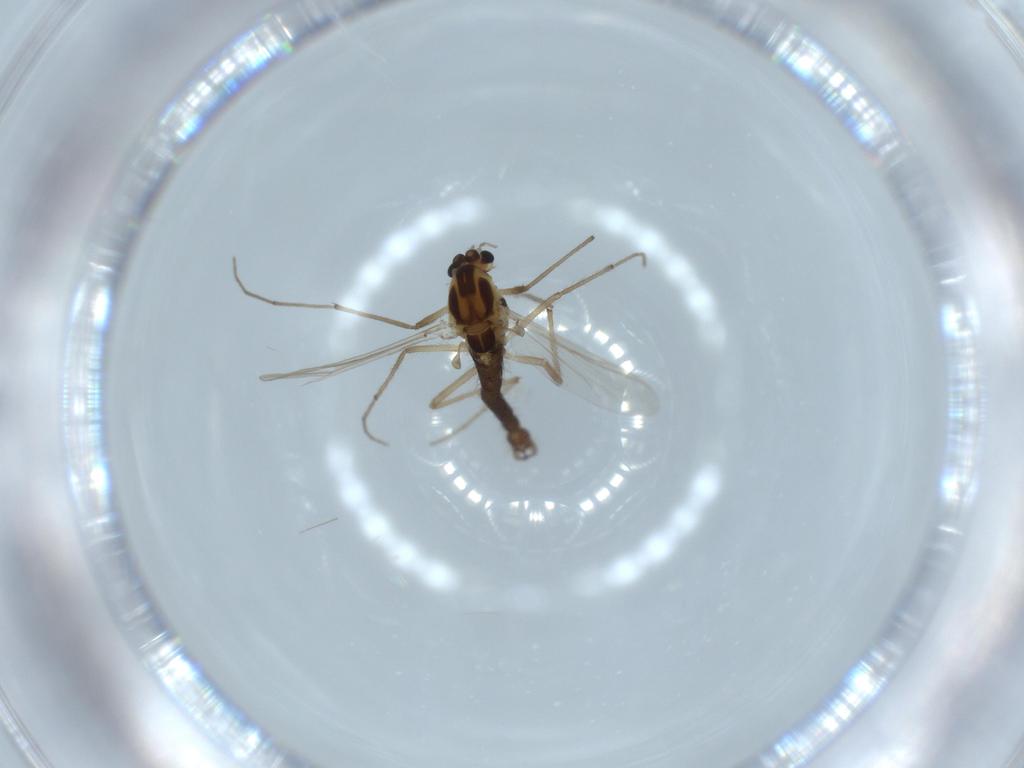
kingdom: Animalia
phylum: Arthropoda
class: Insecta
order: Diptera
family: Chironomidae
